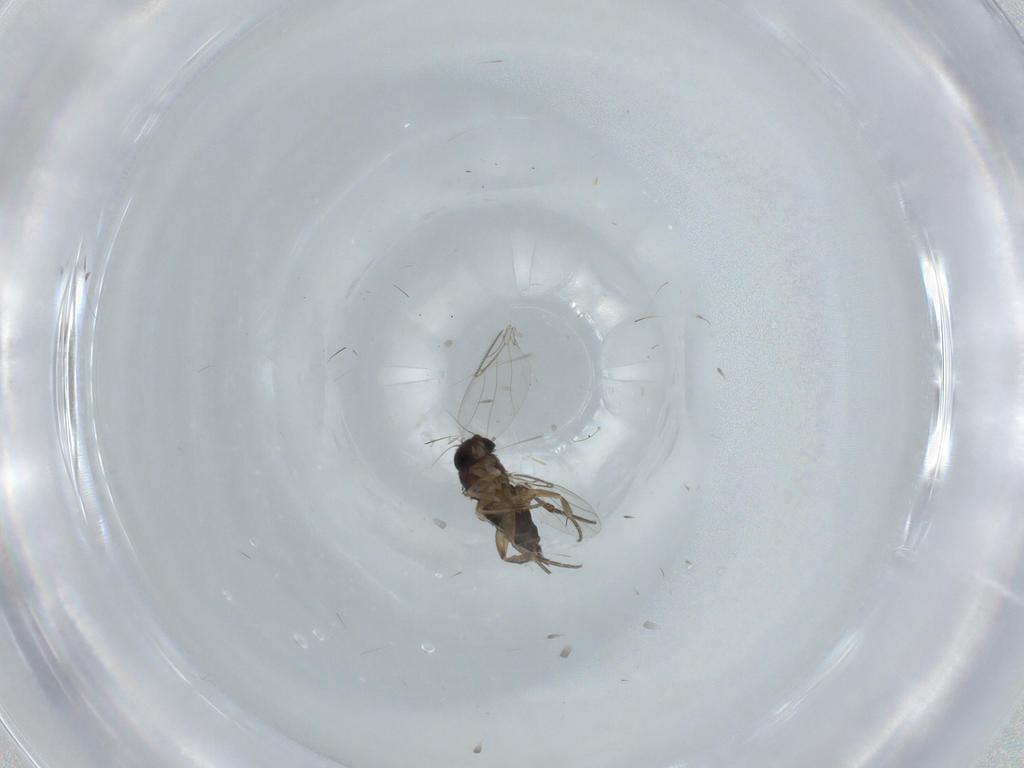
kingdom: Animalia
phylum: Arthropoda
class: Insecta
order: Diptera
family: Phoridae
